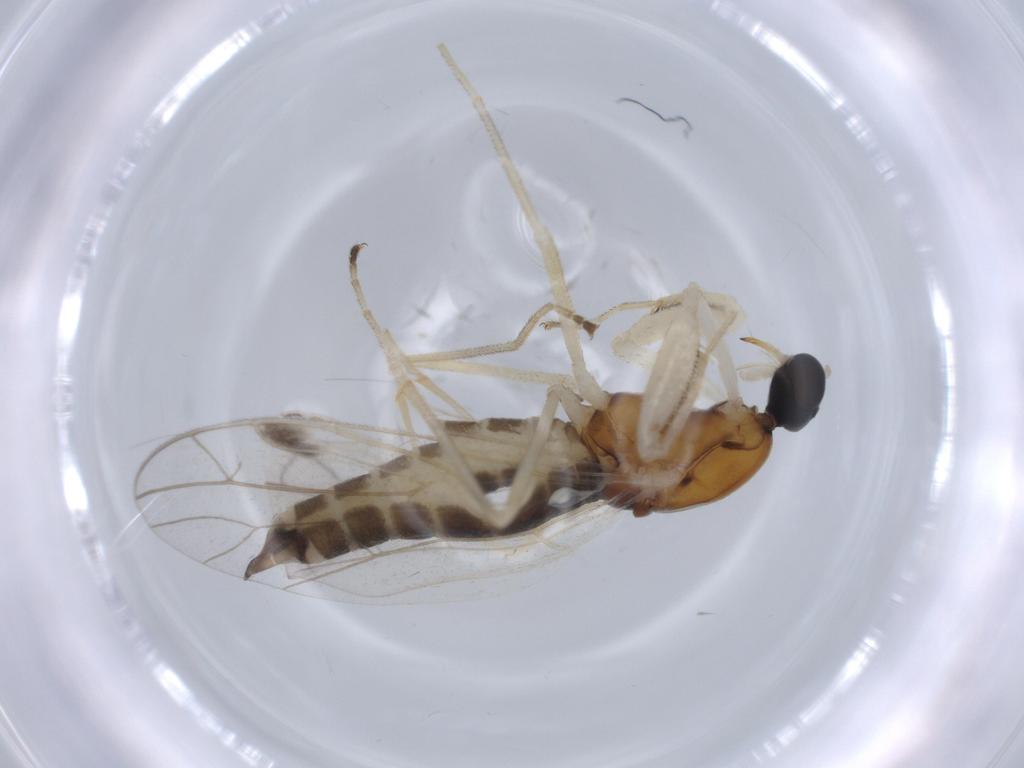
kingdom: Animalia
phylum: Arthropoda
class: Insecta
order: Diptera
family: Empididae
